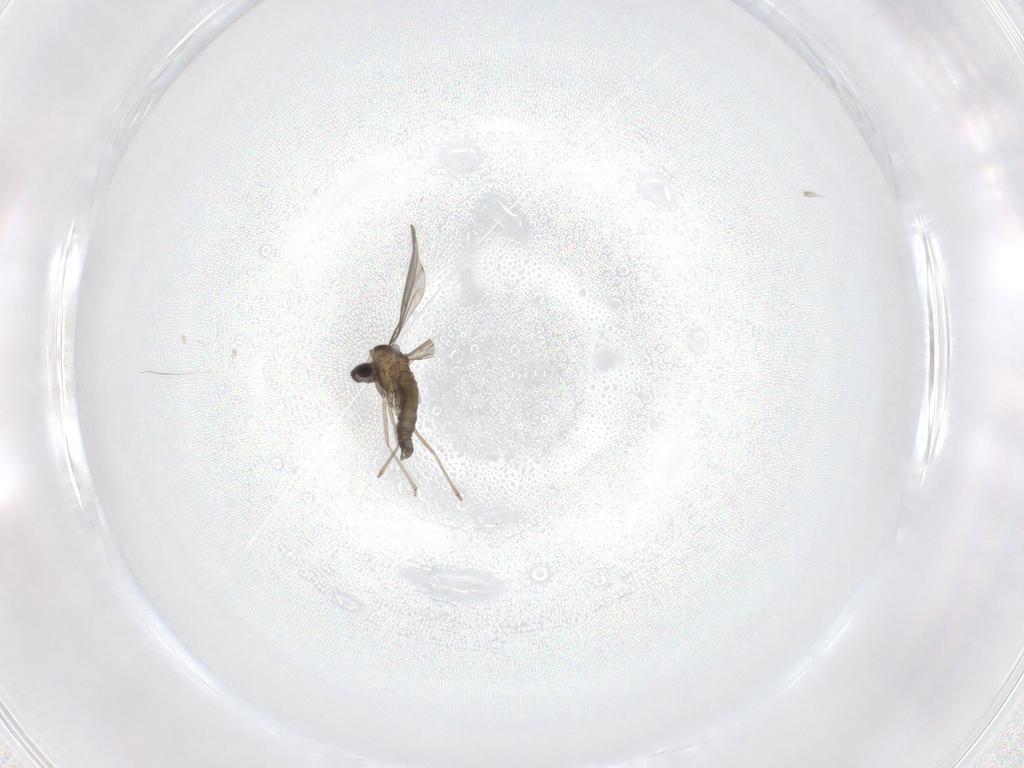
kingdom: Animalia
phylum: Arthropoda
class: Insecta
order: Diptera
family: Cecidomyiidae
